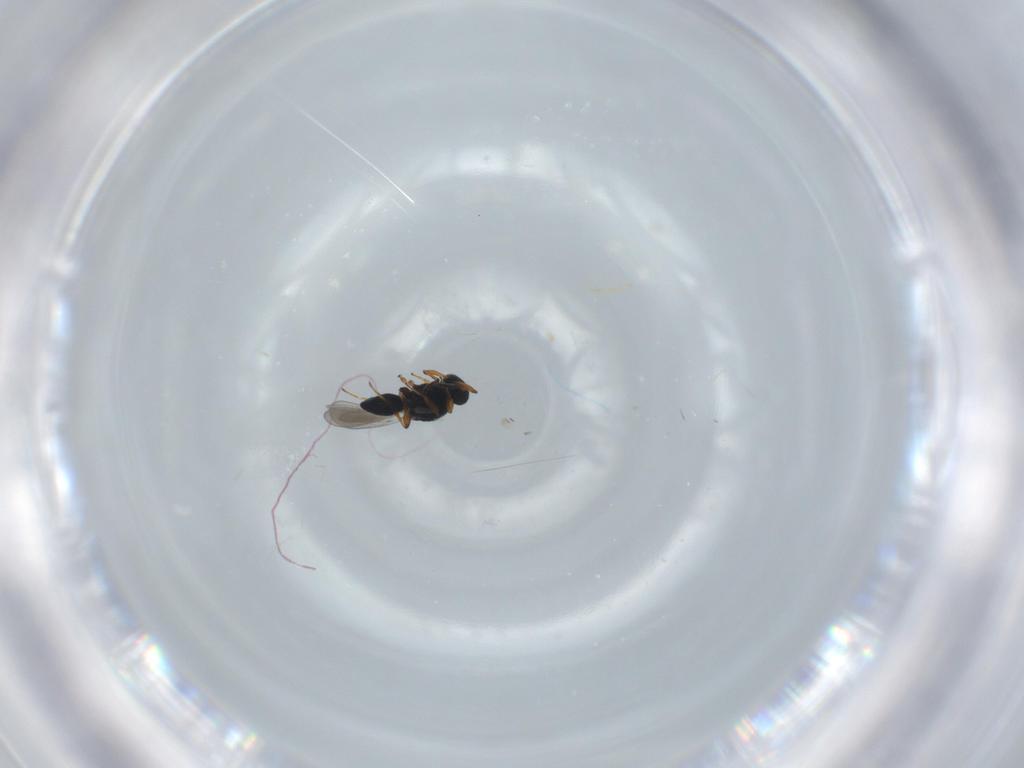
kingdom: Animalia
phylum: Arthropoda
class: Insecta
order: Hymenoptera
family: Platygastridae
